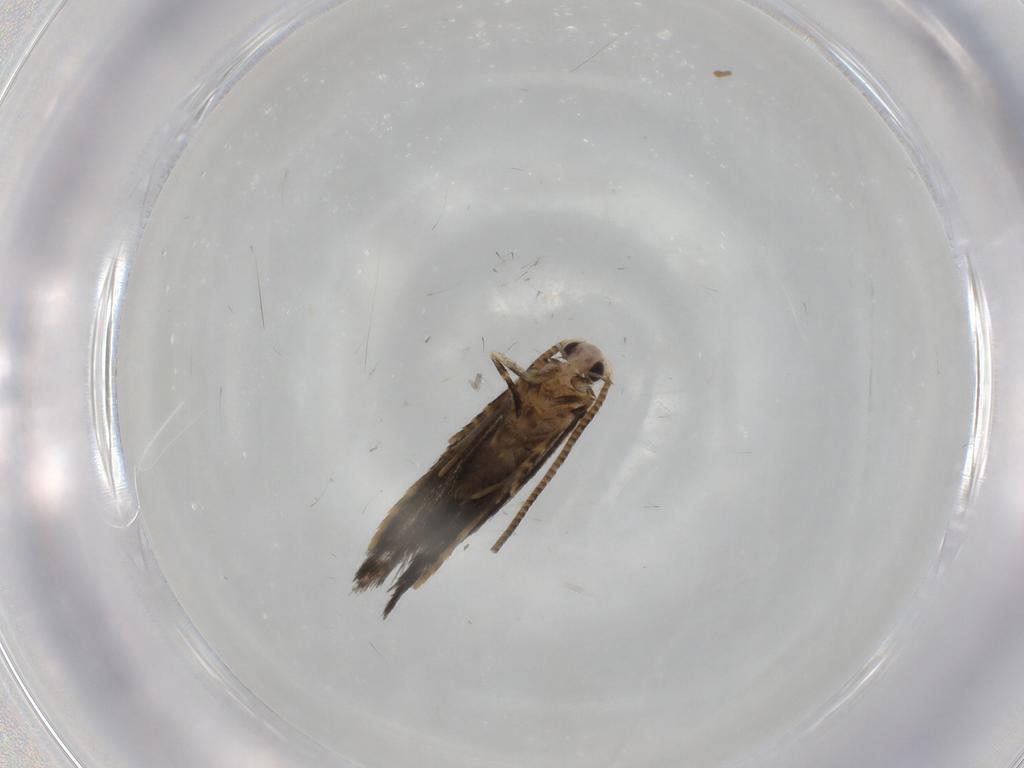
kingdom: Animalia
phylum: Arthropoda
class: Insecta
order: Lepidoptera
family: Tineidae
